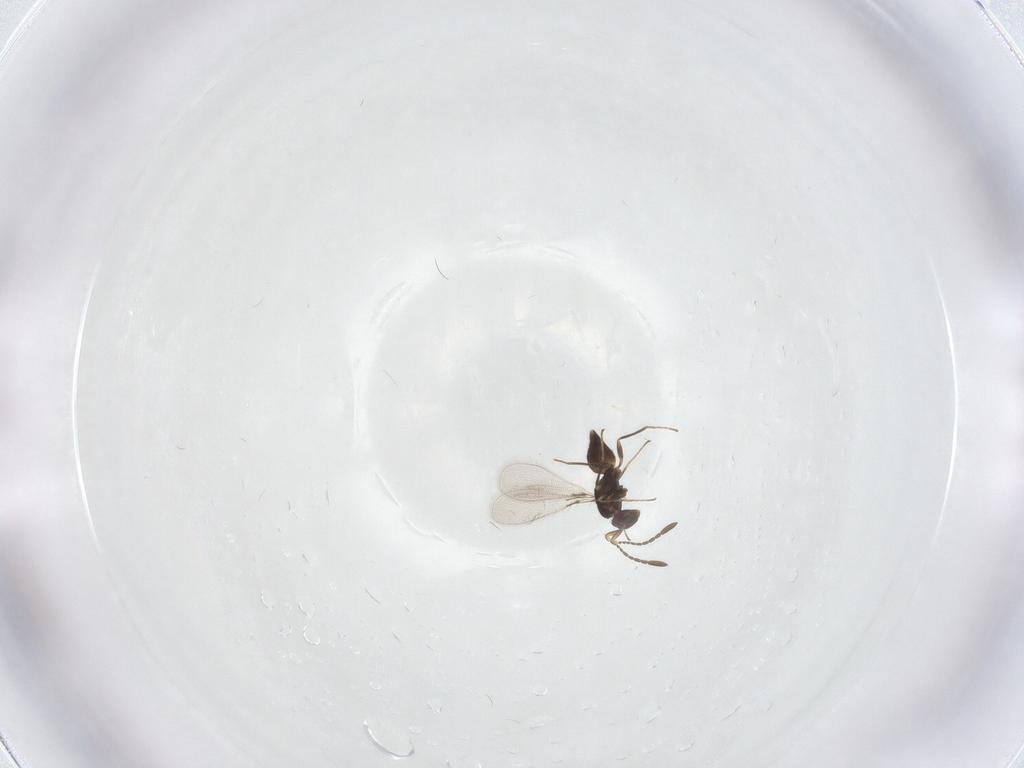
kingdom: Animalia
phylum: Arthropoda
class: Insecta
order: Hymenoptera
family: Mymaridae
